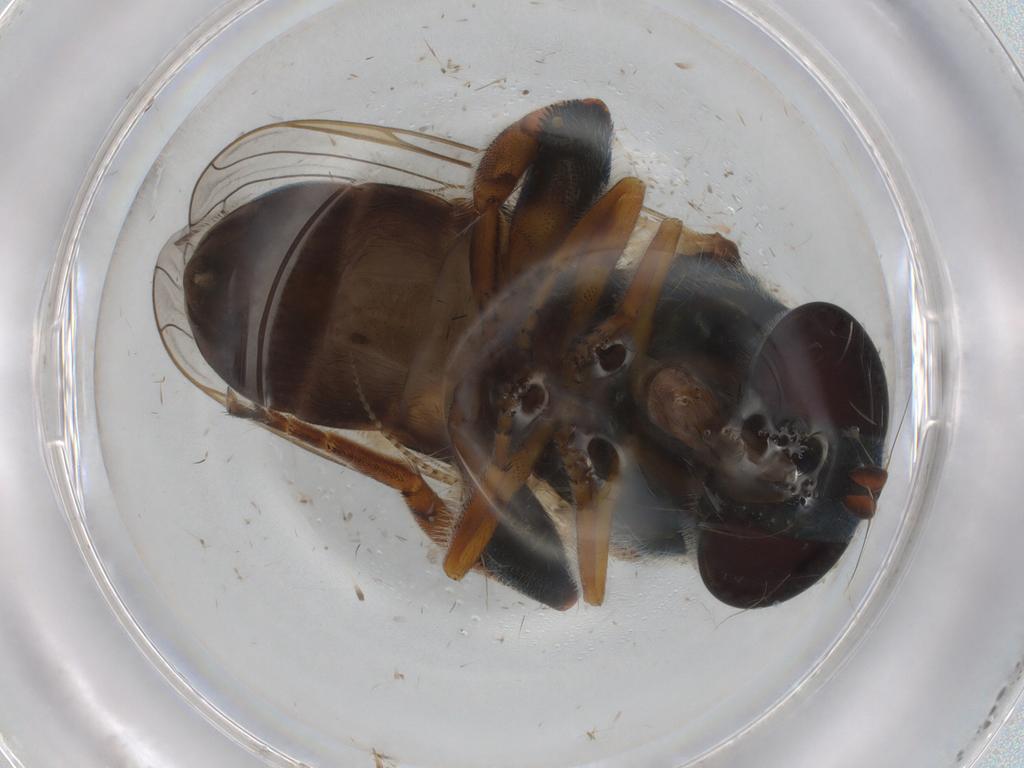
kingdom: Animalia
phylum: Arthropoda
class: Insecta
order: Diptera
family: Syrphidae
